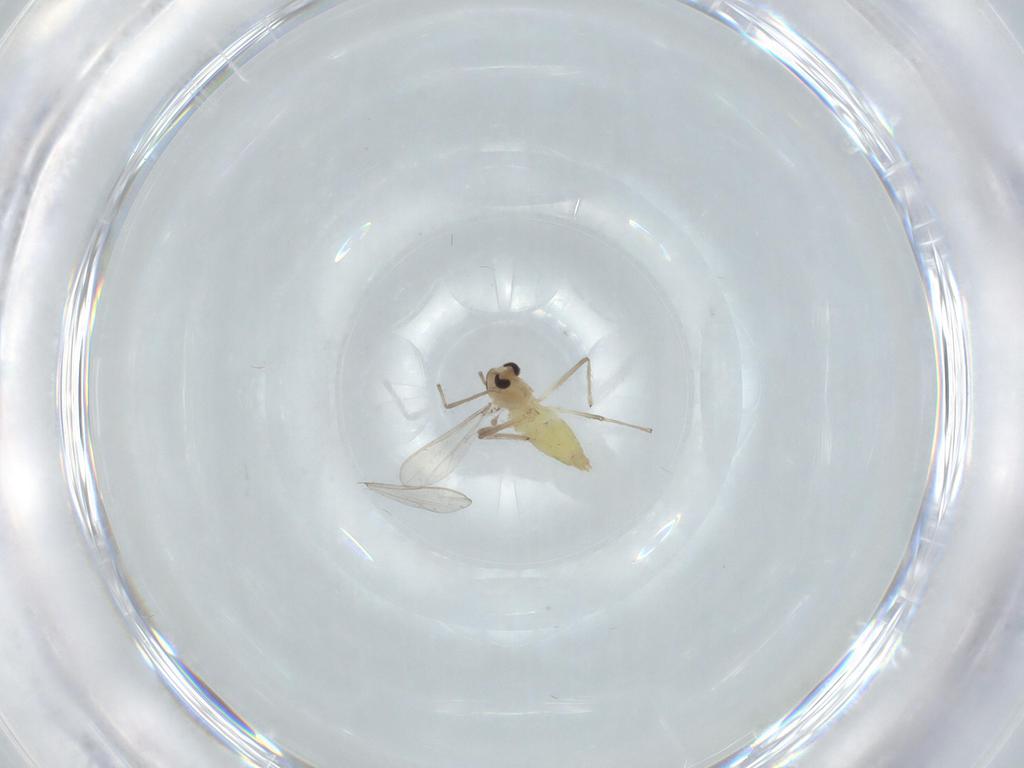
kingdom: Animalia
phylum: Arthropoda
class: Insecta
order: Diptera
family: Chironomidae
